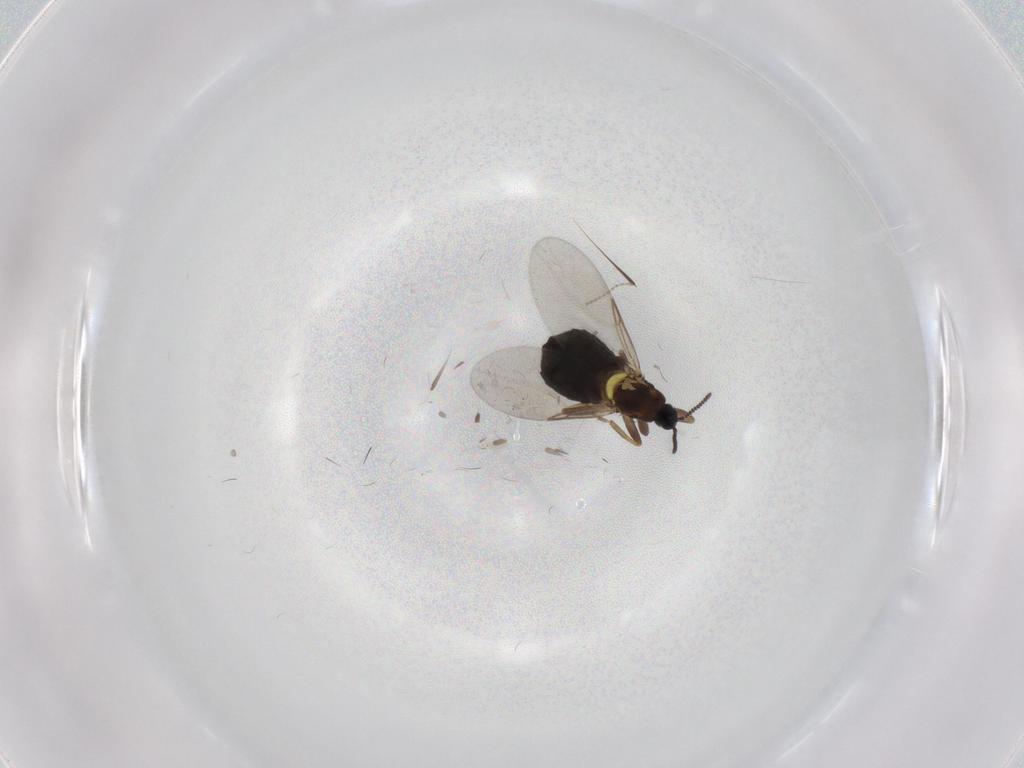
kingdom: Animalia
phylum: Arthropoda
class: Insecta
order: Diptera
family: Scatopsidae
